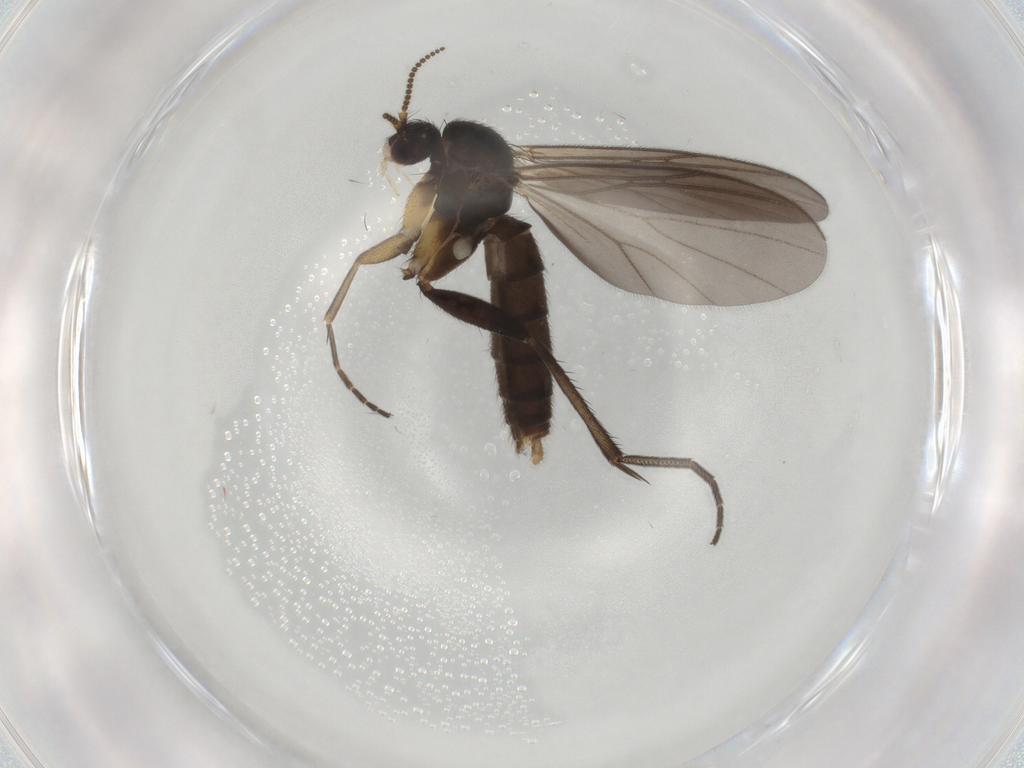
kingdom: Animalia
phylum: Arthropoda
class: Insecta
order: Diptera
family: Mycetophilidae
